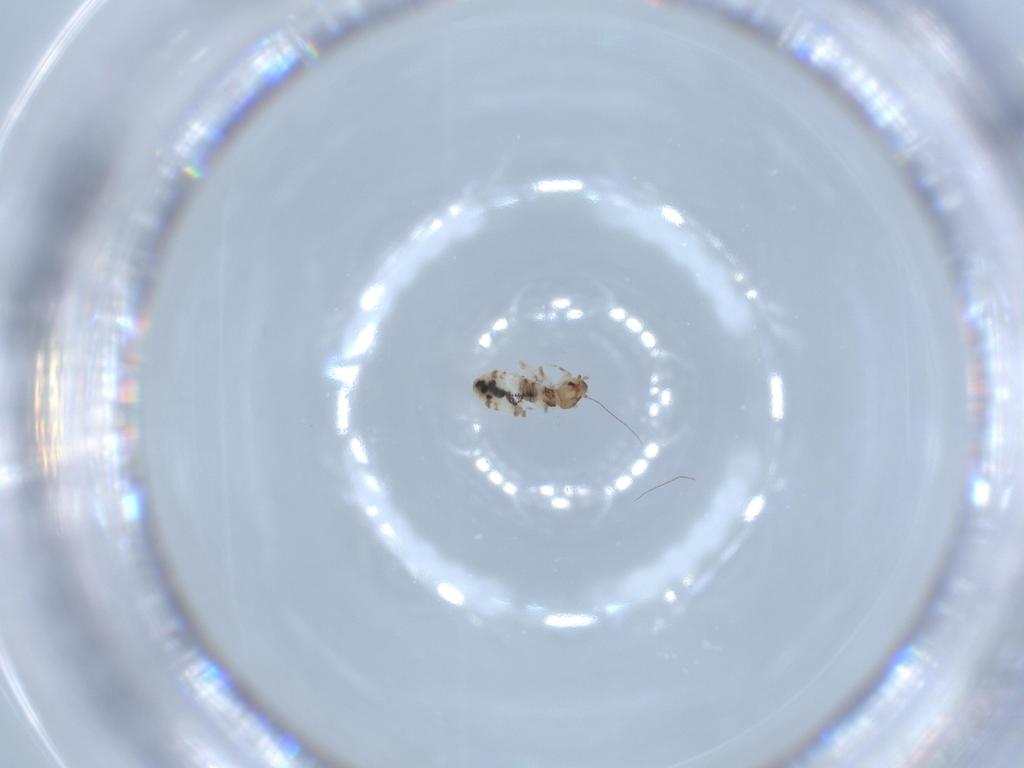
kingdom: Animalia
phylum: Arthropoda
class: Insecta
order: Psocodea
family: Liposcelididae
